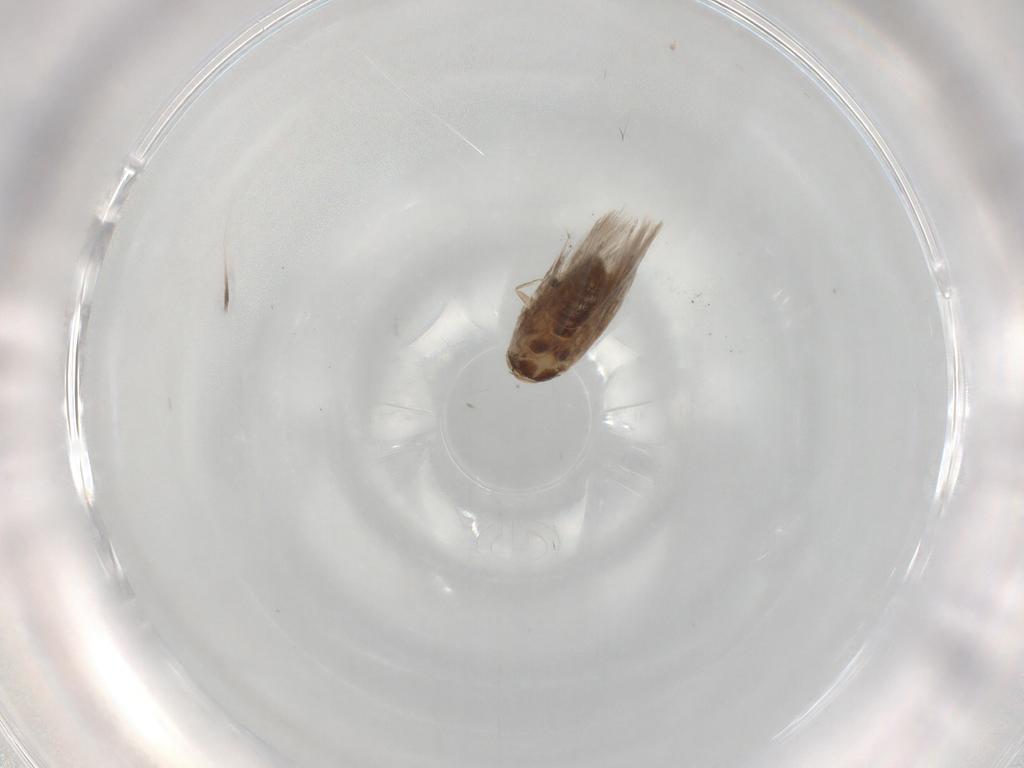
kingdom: Animalia
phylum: Arthropoda
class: Insecta
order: Lepidoptera
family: Nymphalidae
